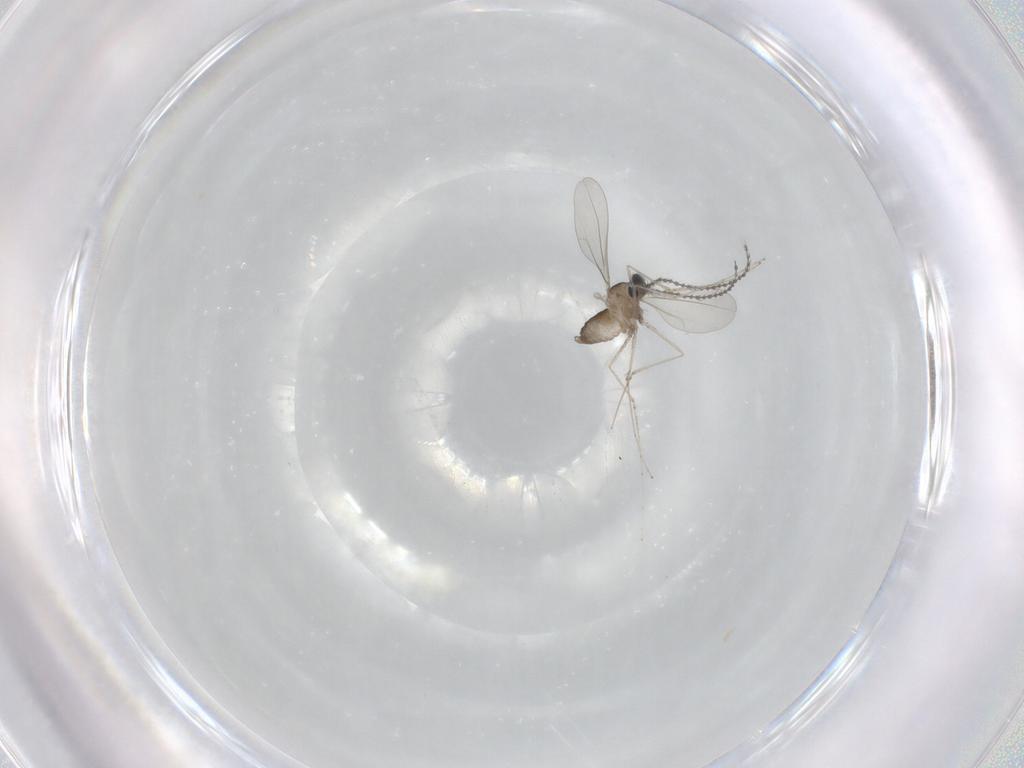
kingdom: Animalia
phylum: Arthropoda
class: Insecta
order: Diptera
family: Cecidomyiidae
